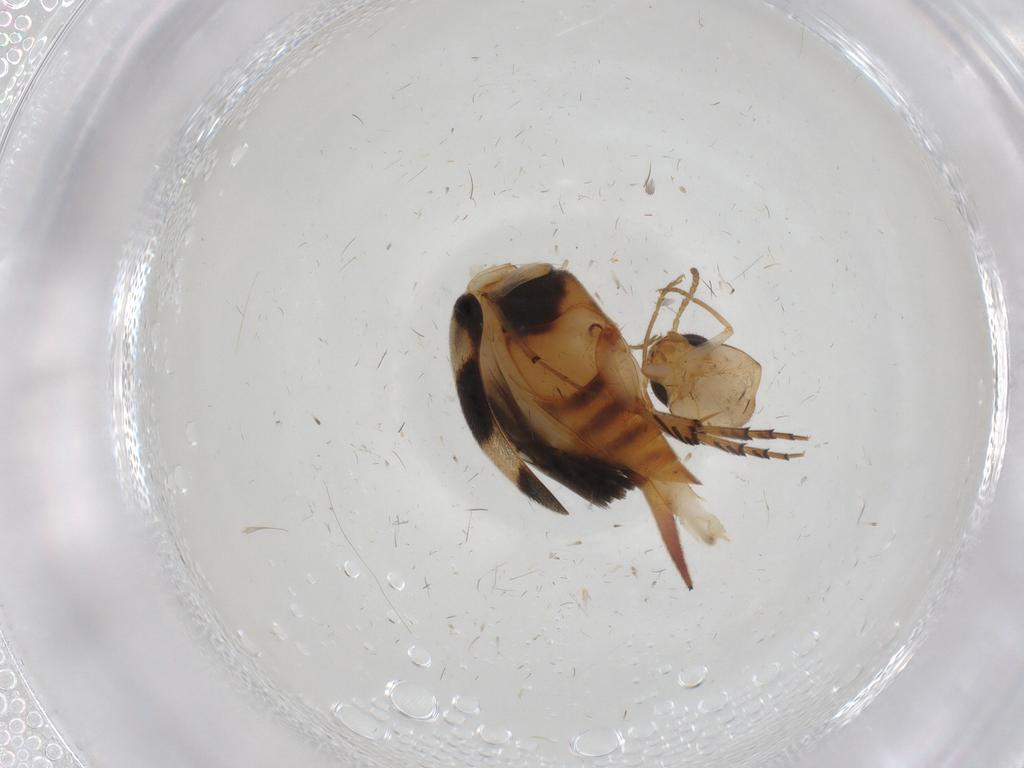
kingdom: Animalia
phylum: Arthropoda
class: Insecta
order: Coleoptera
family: Mordellidae
